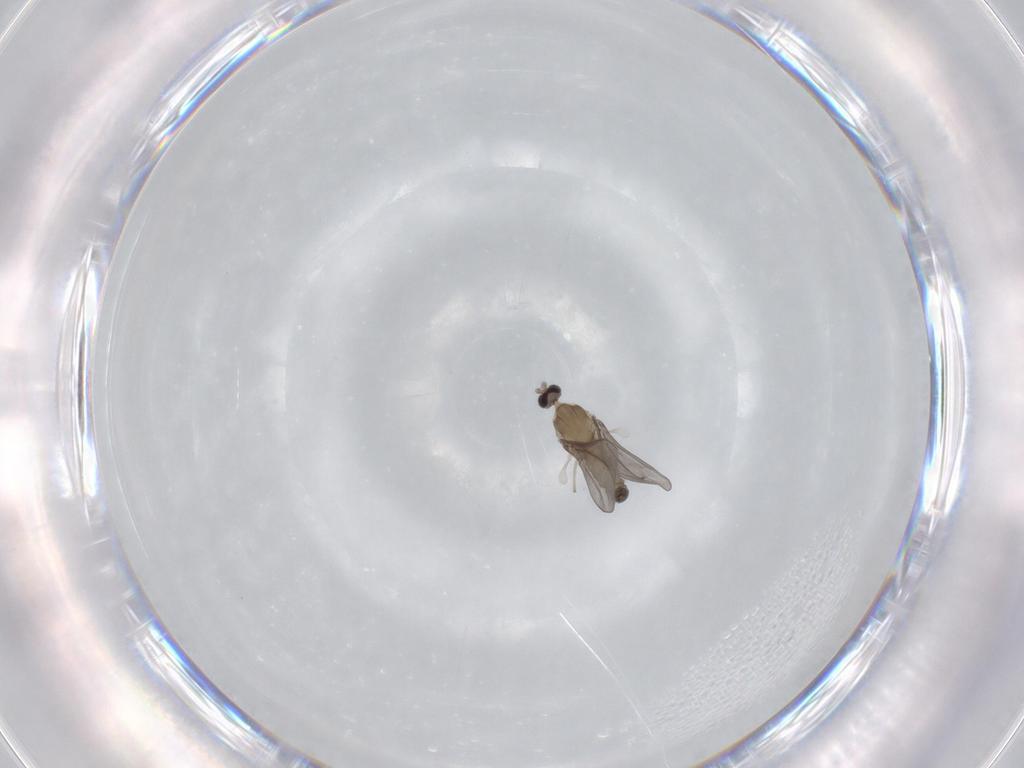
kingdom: Animalia
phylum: Arthropoda
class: Insecta
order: Diptera
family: Cecidomyiidae
